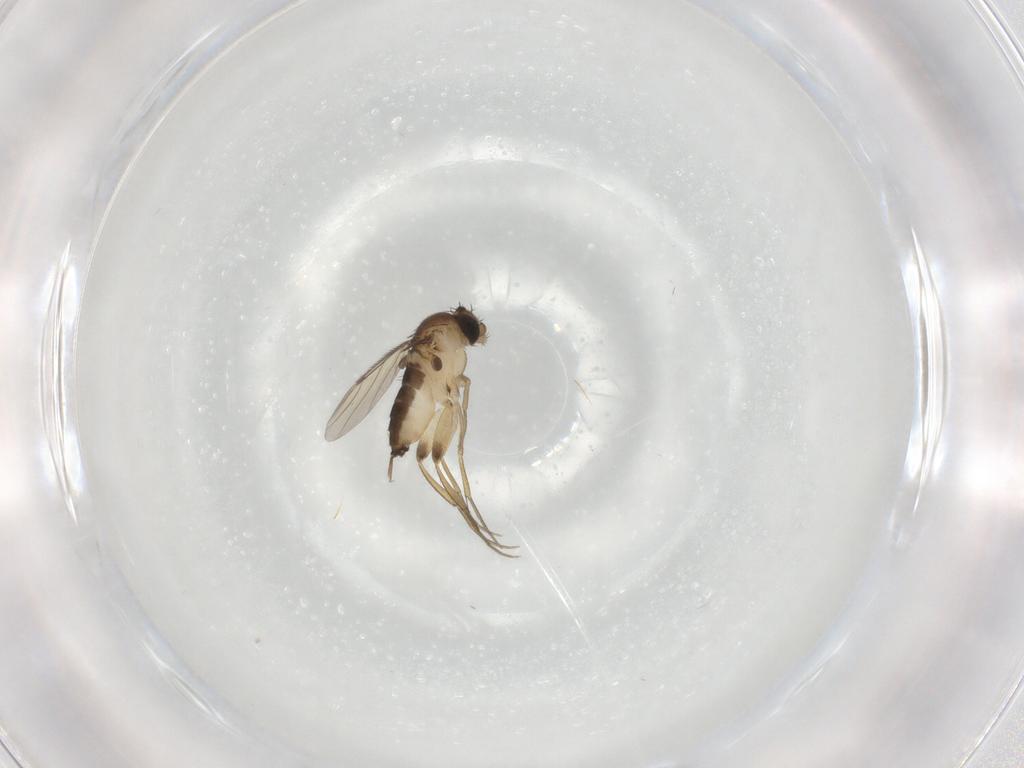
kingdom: Animalia
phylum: Arthropoda
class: Insecta
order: Diptera
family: Phoridae
